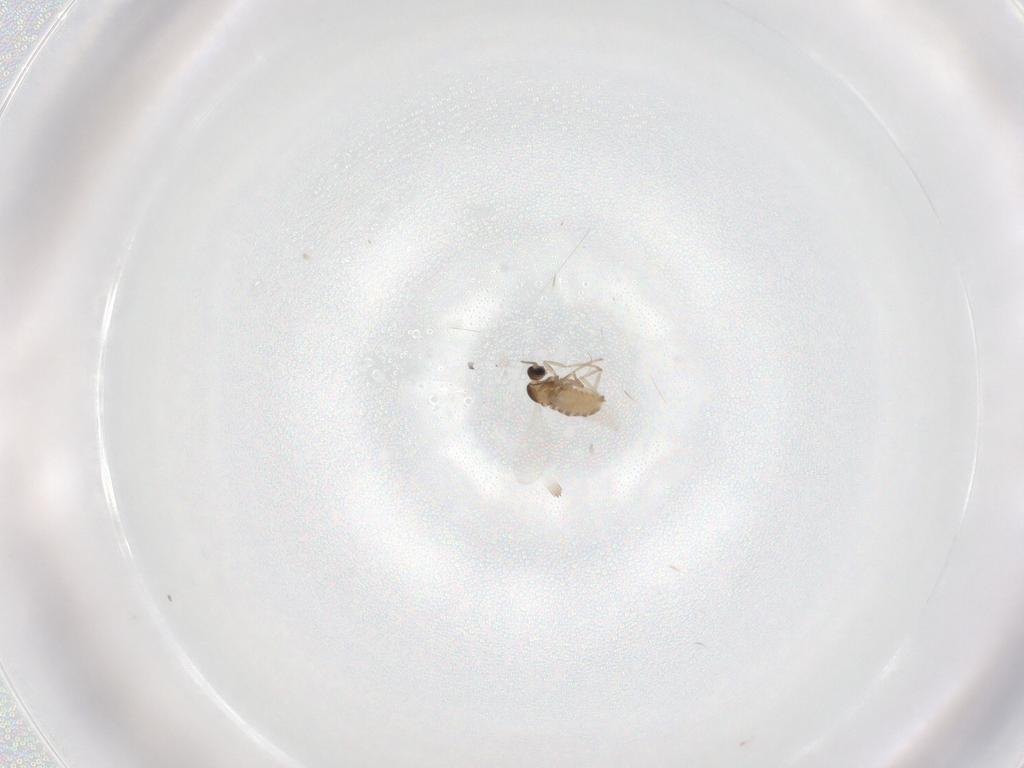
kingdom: Animalia
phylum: Arthropoda
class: Insecta
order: Diptera
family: Cecidomyiidae
